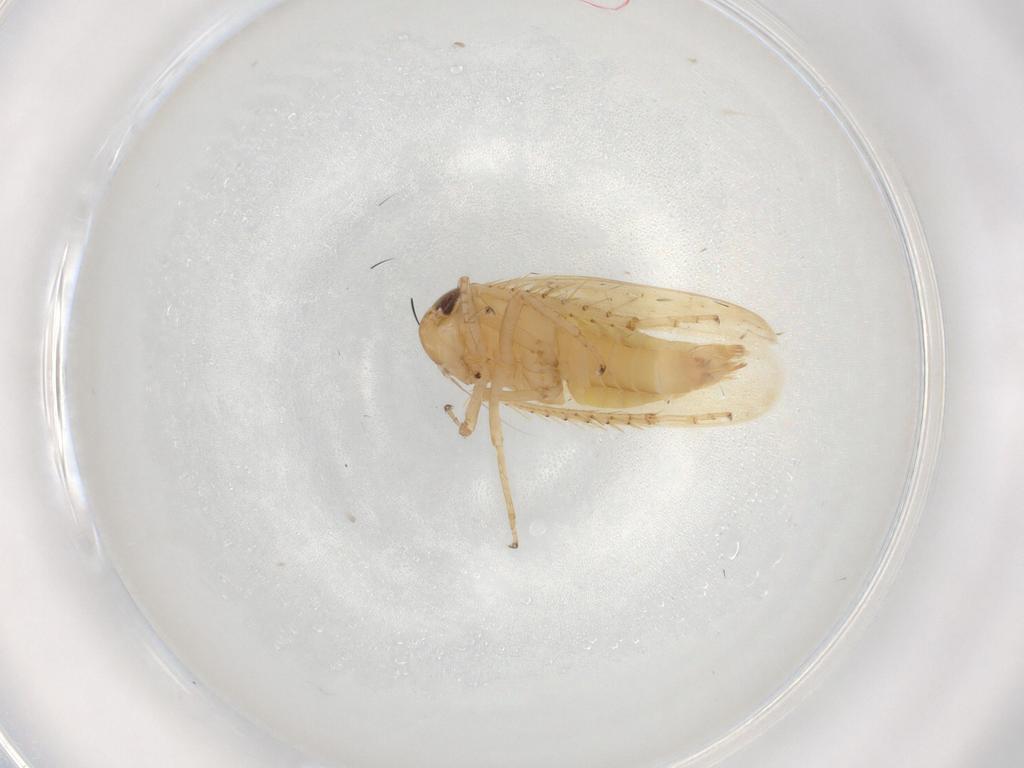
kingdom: Animalia
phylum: Arthropoda
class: Insecta
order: Hemiptera
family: Cicadellidae
